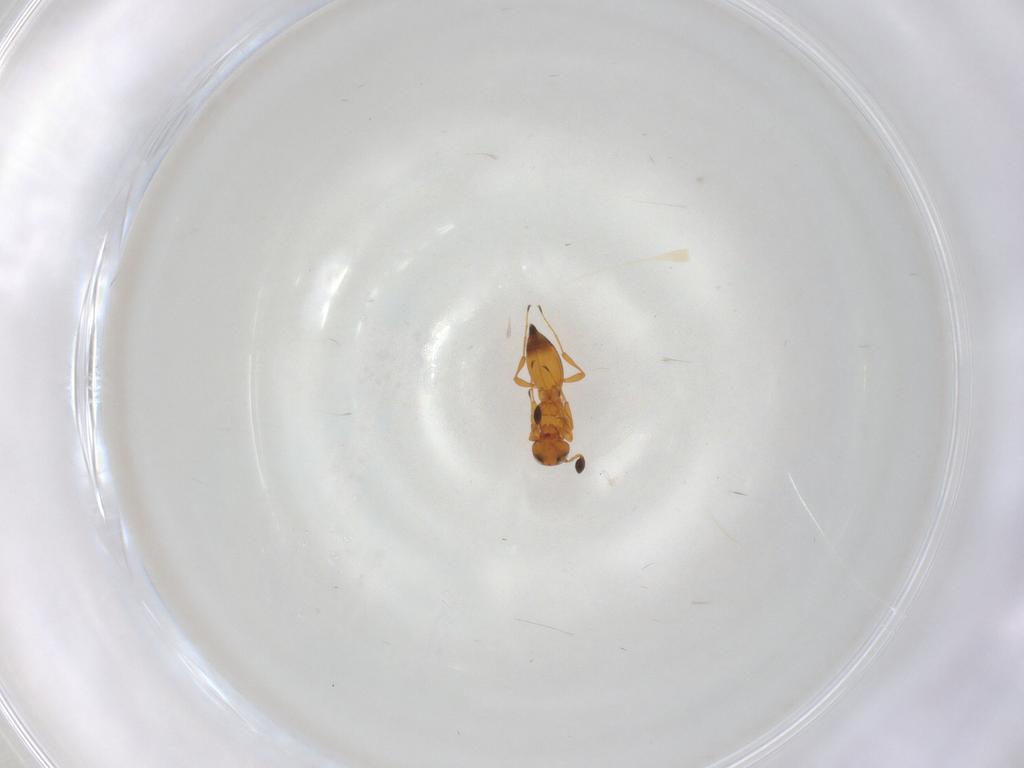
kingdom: Animalia
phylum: Arthropoda
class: Insecta
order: Hymenoptera
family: Platygastridae
